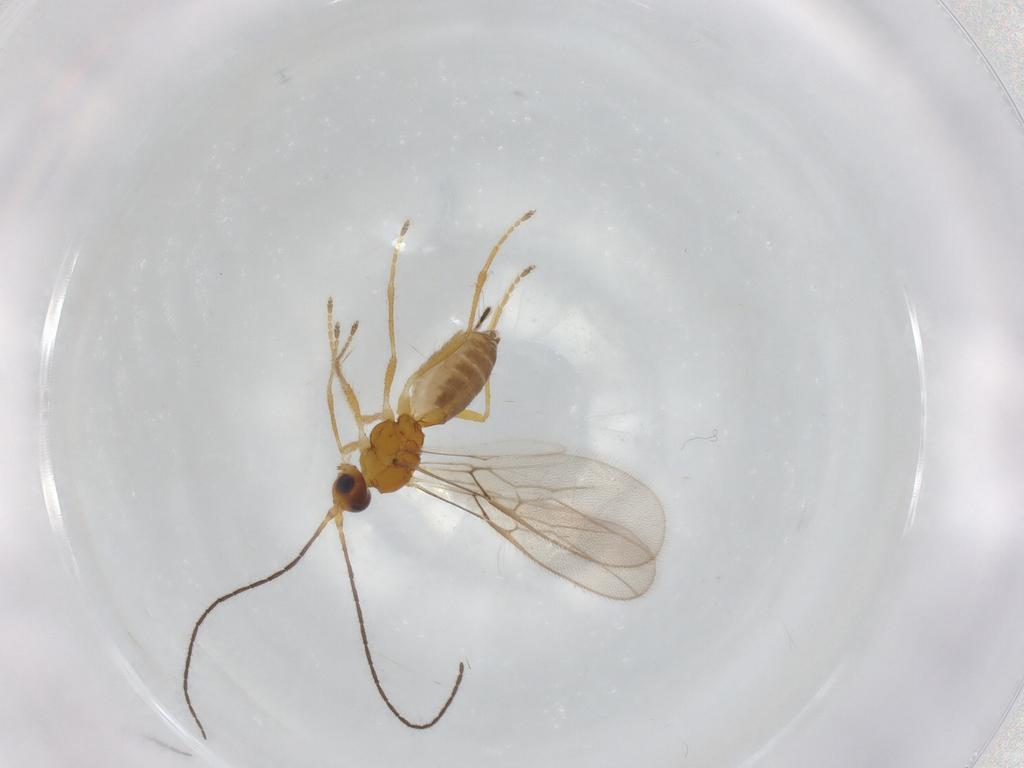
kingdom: Animalia
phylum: Arthropoda
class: Insecta
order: Hymenoptera
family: Braconidae
